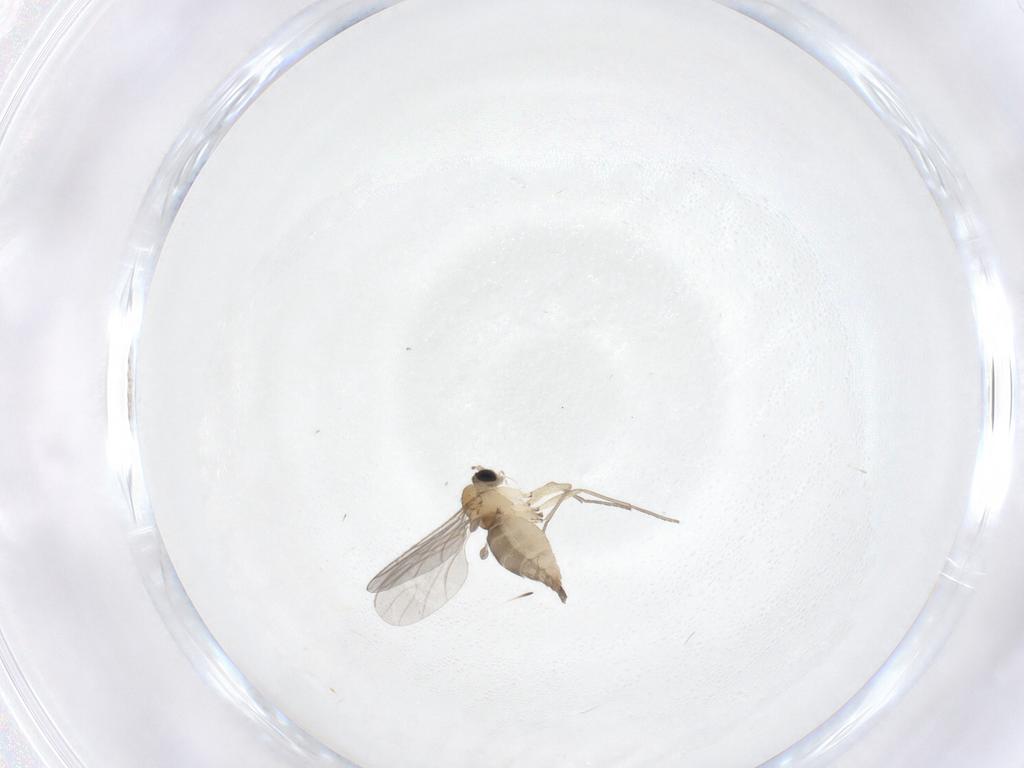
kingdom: Animalia
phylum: Arthropoda
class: Insecta
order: Diptera
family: Sciaridae
